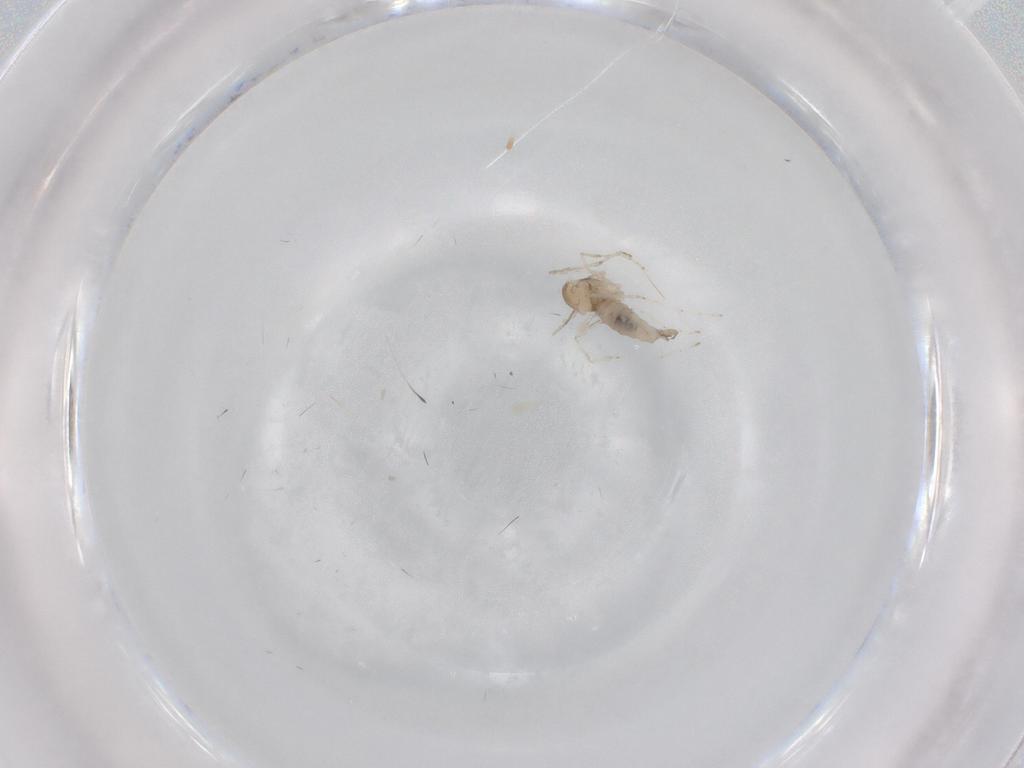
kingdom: Animalia
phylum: Arthropoda
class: Insecta
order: Diptera
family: Cecidomyiidae
